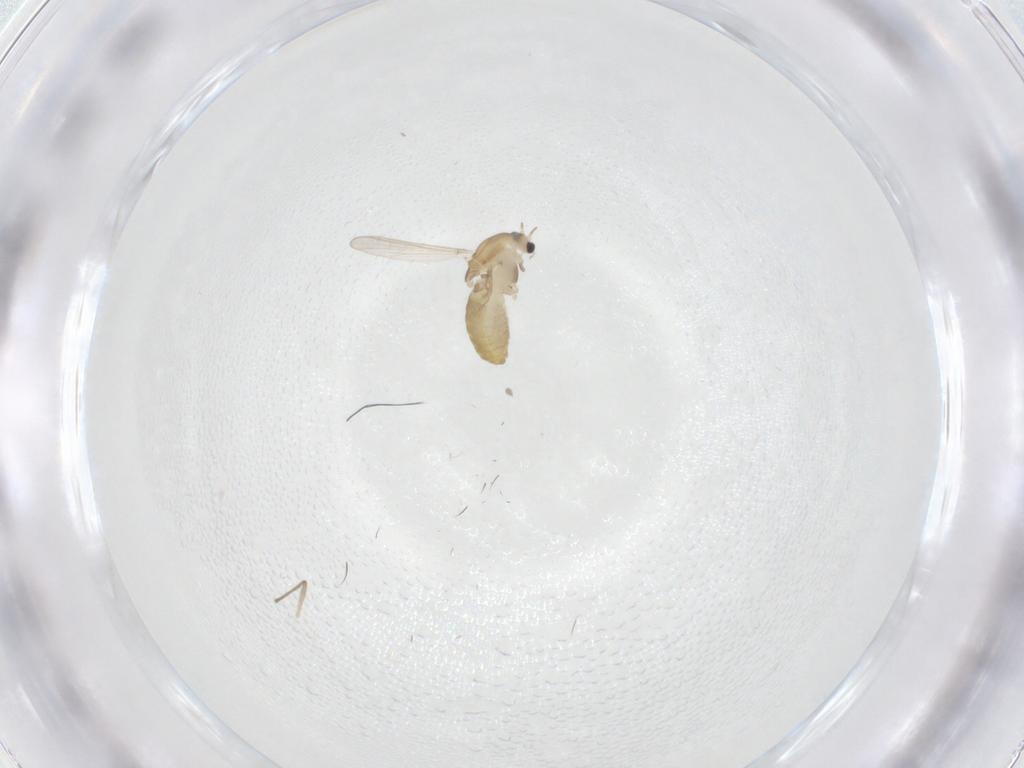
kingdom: Animalia
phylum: Arthropoda
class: Insecta
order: Diptera
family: Chironomidae
